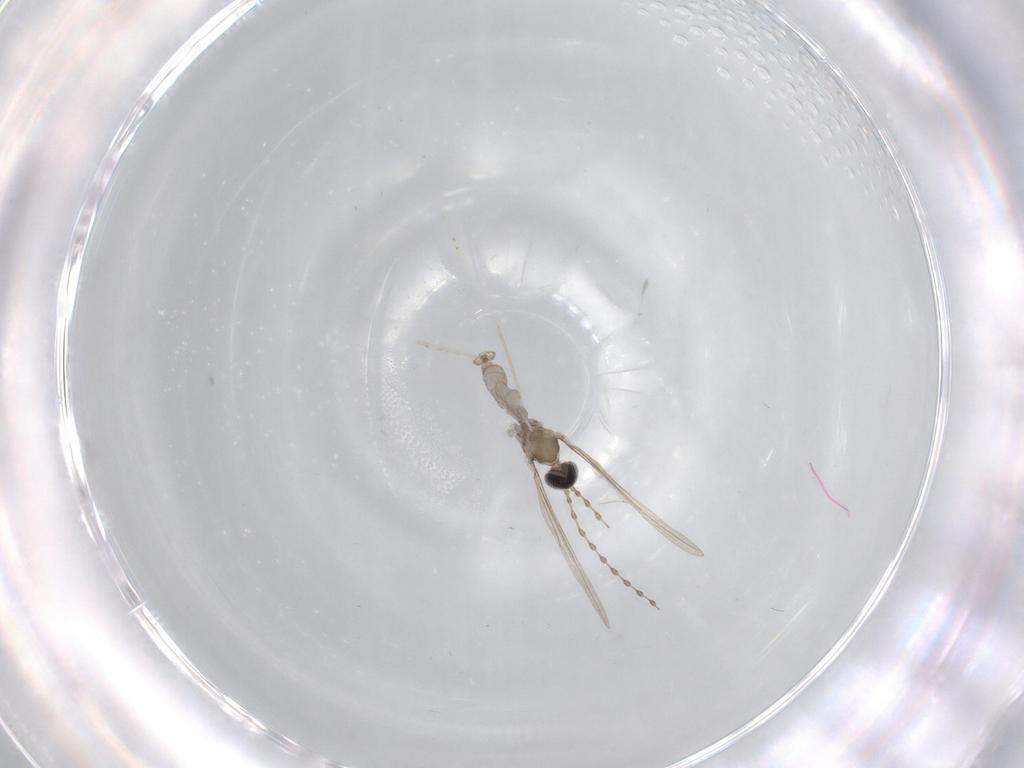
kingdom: Animalia
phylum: Arthropoda
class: Insecta
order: Diptera
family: Cecidomyiidae
